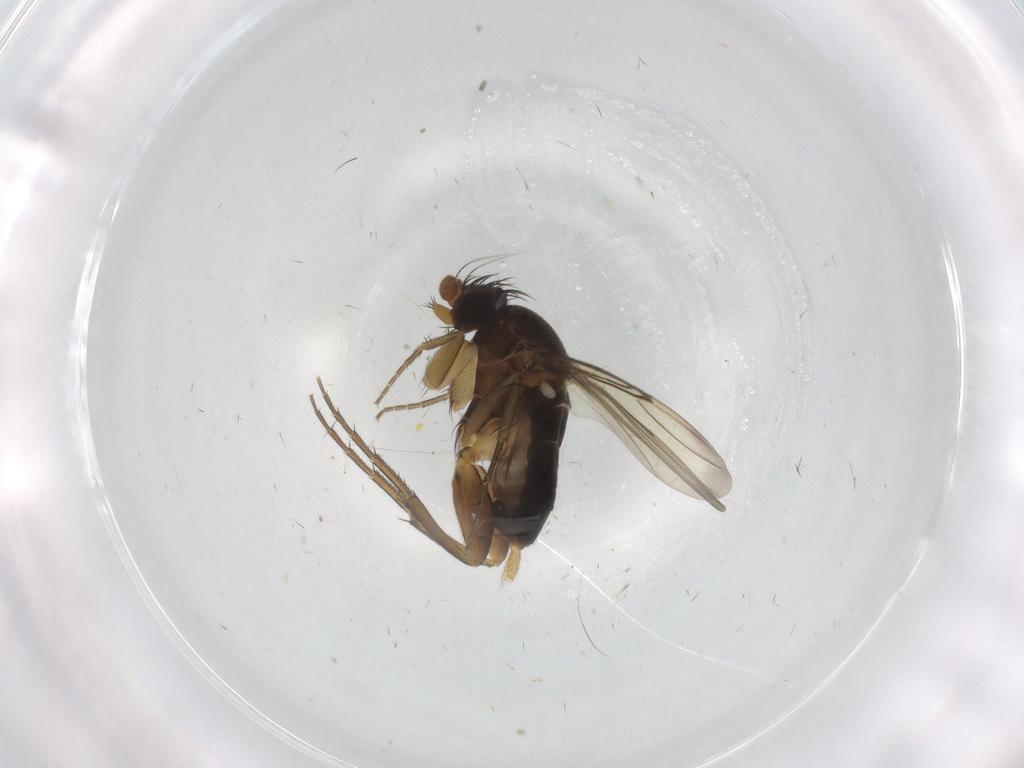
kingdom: Animalia
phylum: Arthropoda
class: Insecta
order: Diptera
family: Phoridae
